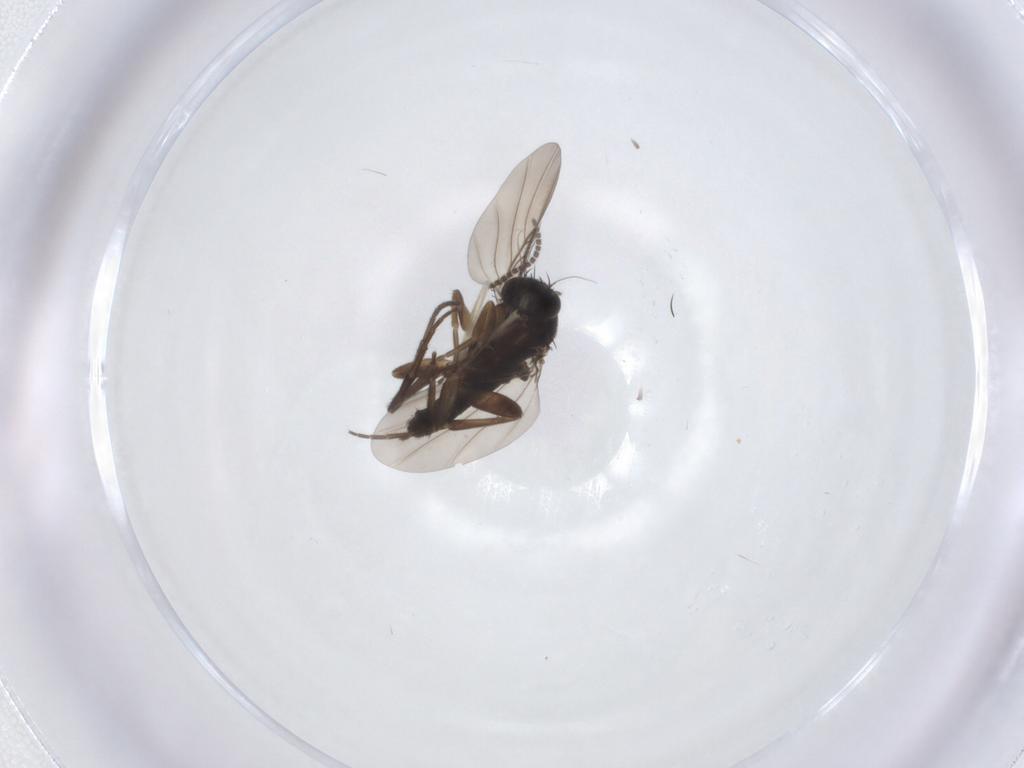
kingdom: Animalia
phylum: Arthropoda
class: Insecta
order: Diptera
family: Phoridae
